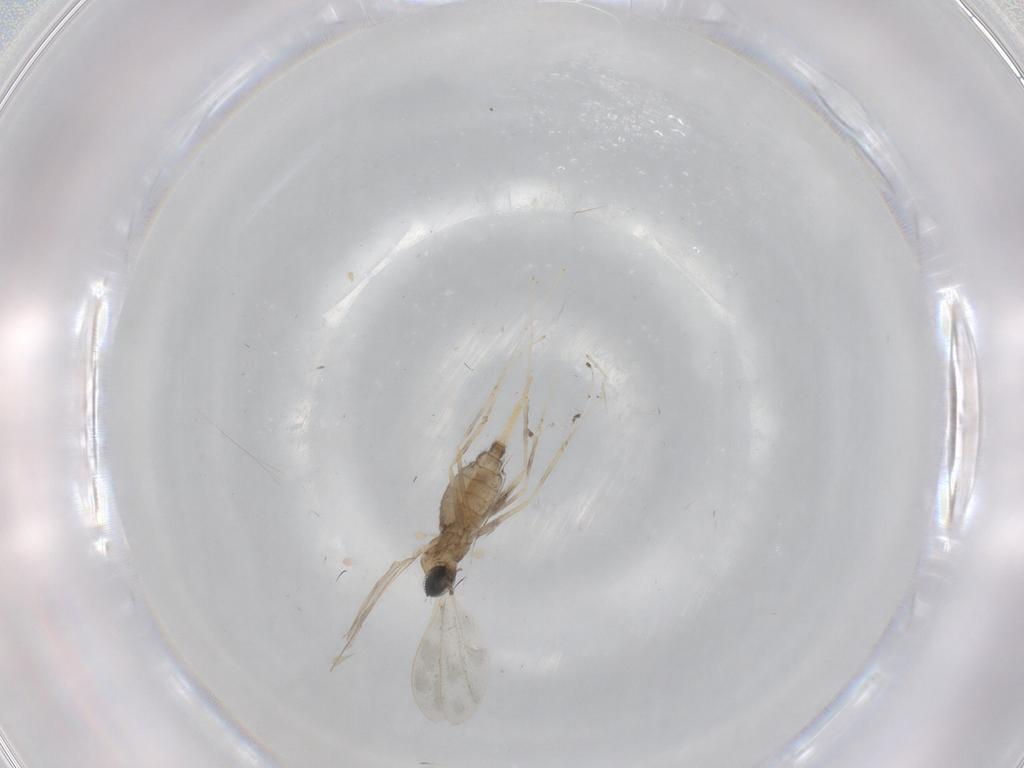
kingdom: Animalia
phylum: Arthropoda
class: Insecta
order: Diptera
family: Cecidomyiidae
